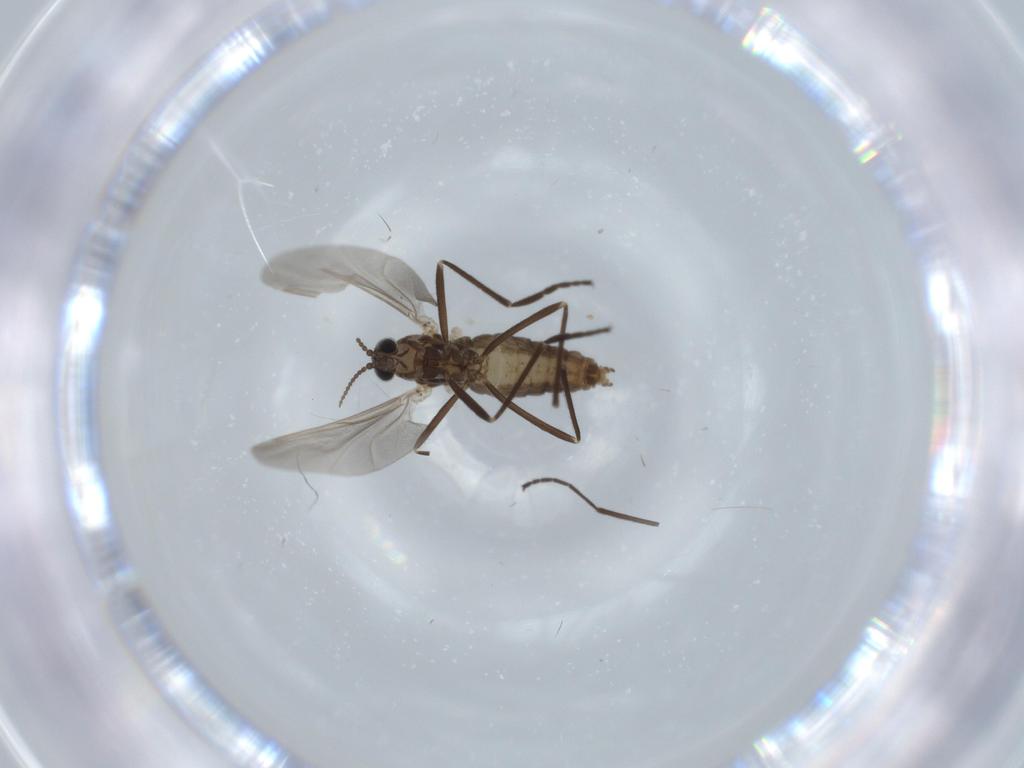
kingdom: Animalia
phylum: Arthropoda
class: Insecta
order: Diptera
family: Cecidomyiidae
